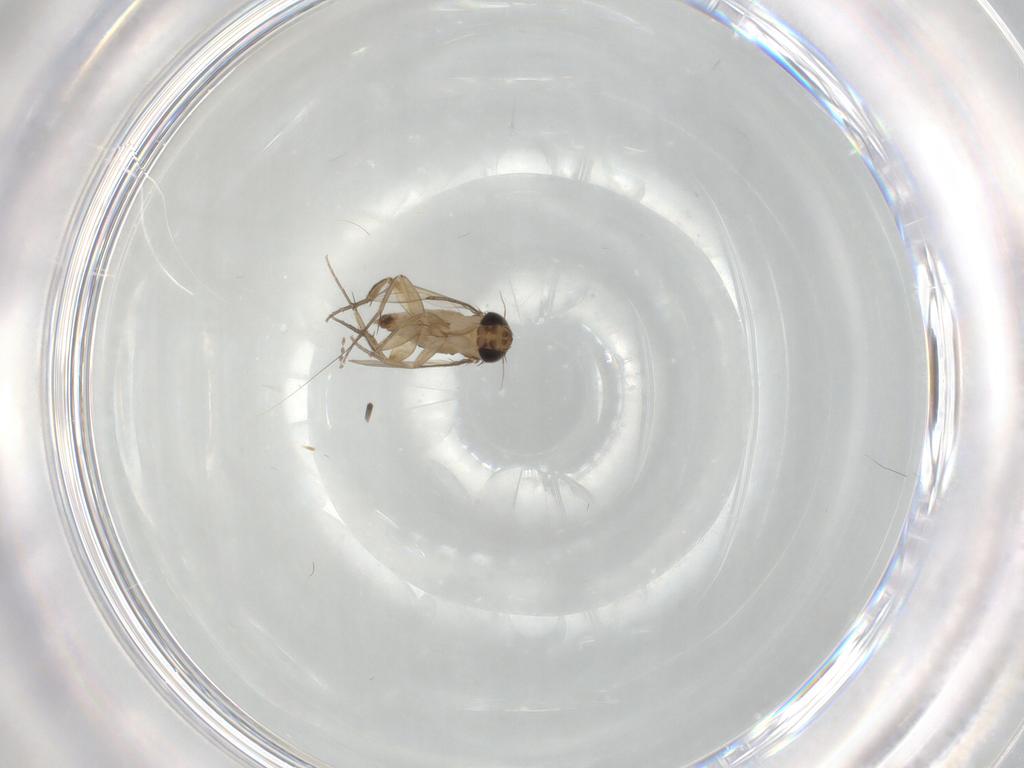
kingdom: Animalia
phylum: Arthropoda
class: Insecta
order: Diptera
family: Phoridae
